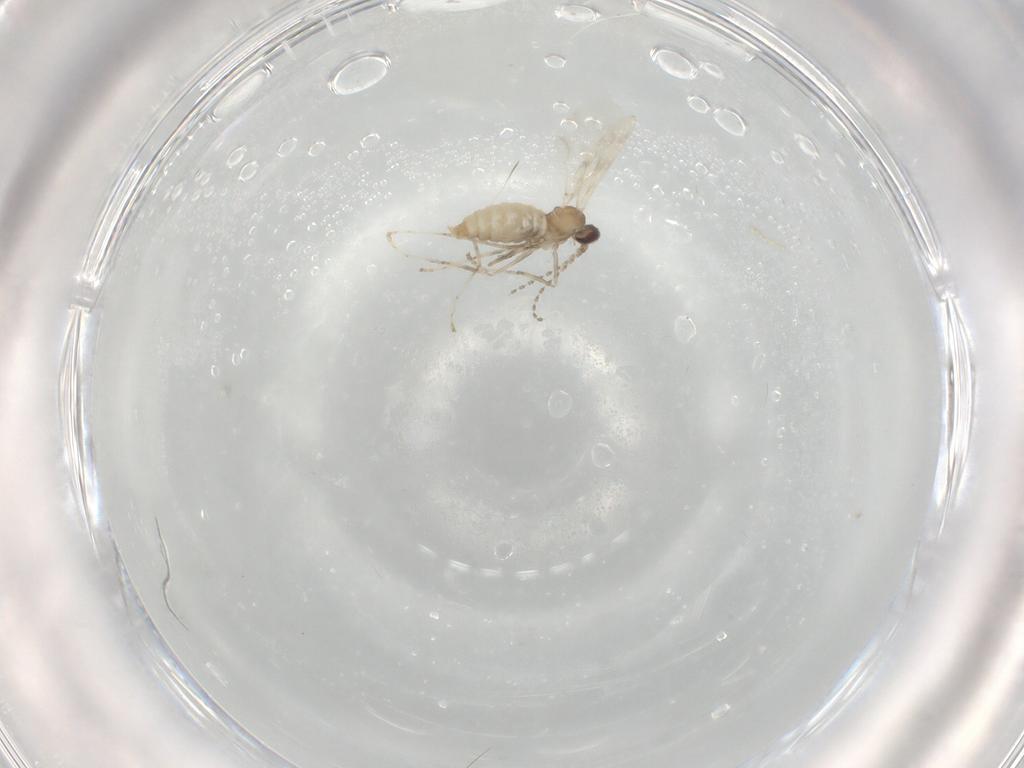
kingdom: Animalia
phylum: Arthropoda
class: Insecta
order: Diptera
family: Cecidomyiidae
